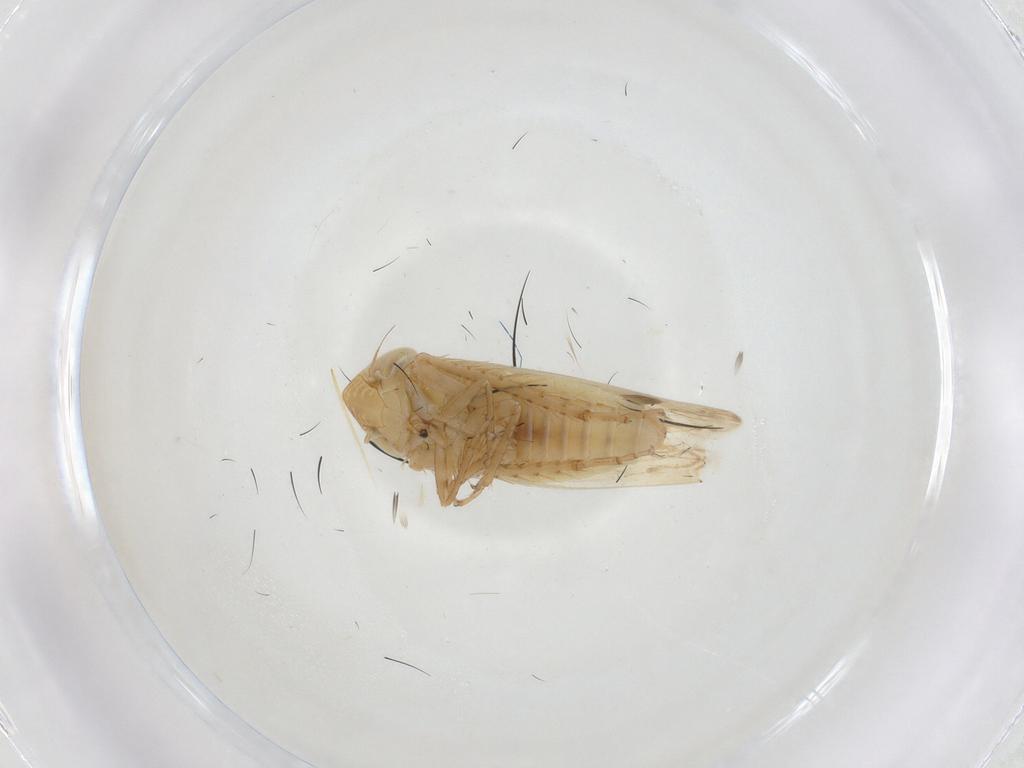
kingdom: Animalia
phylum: Arthropoda
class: Insecta
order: Hemiptera
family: Cicadellidae
